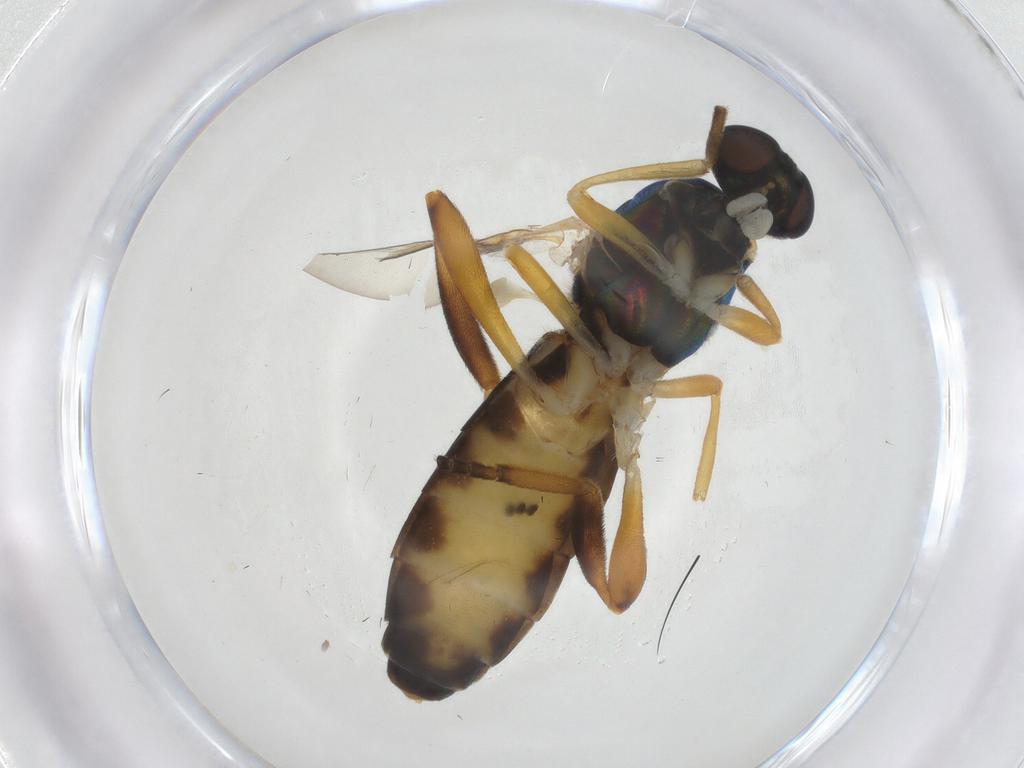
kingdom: Animalia
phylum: Arthropoda
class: Insecta
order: Diptera
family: Stratiomyidae
